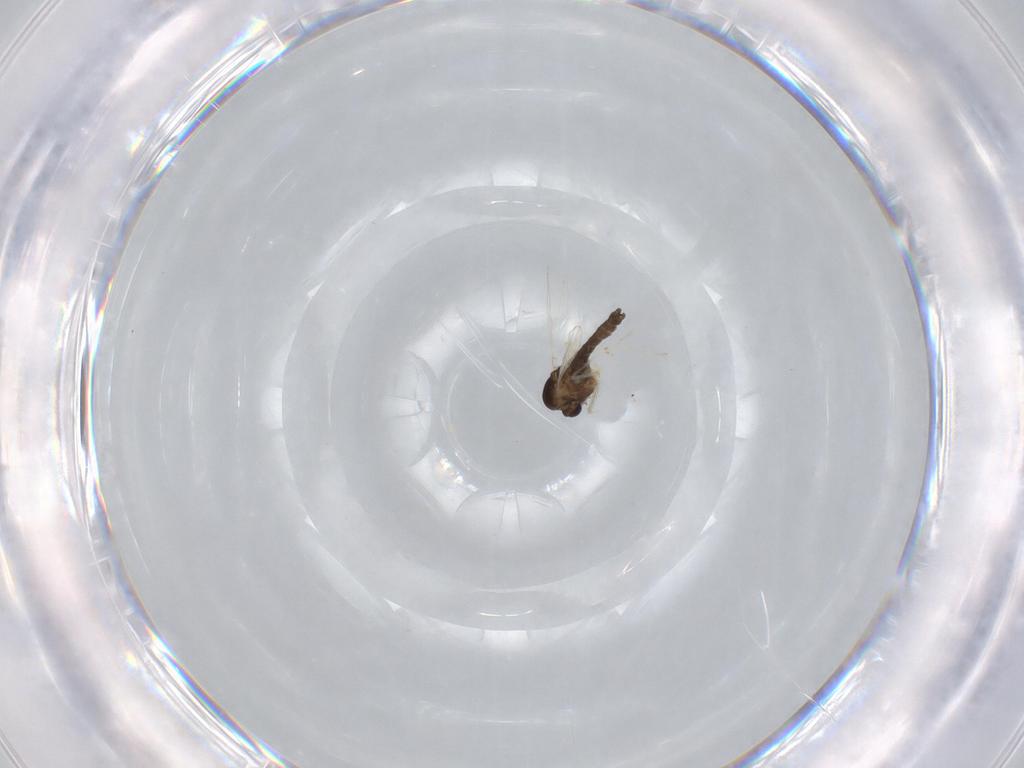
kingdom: Animalia
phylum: Arthropoda
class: Insecta
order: Diptera
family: Chironomidae
